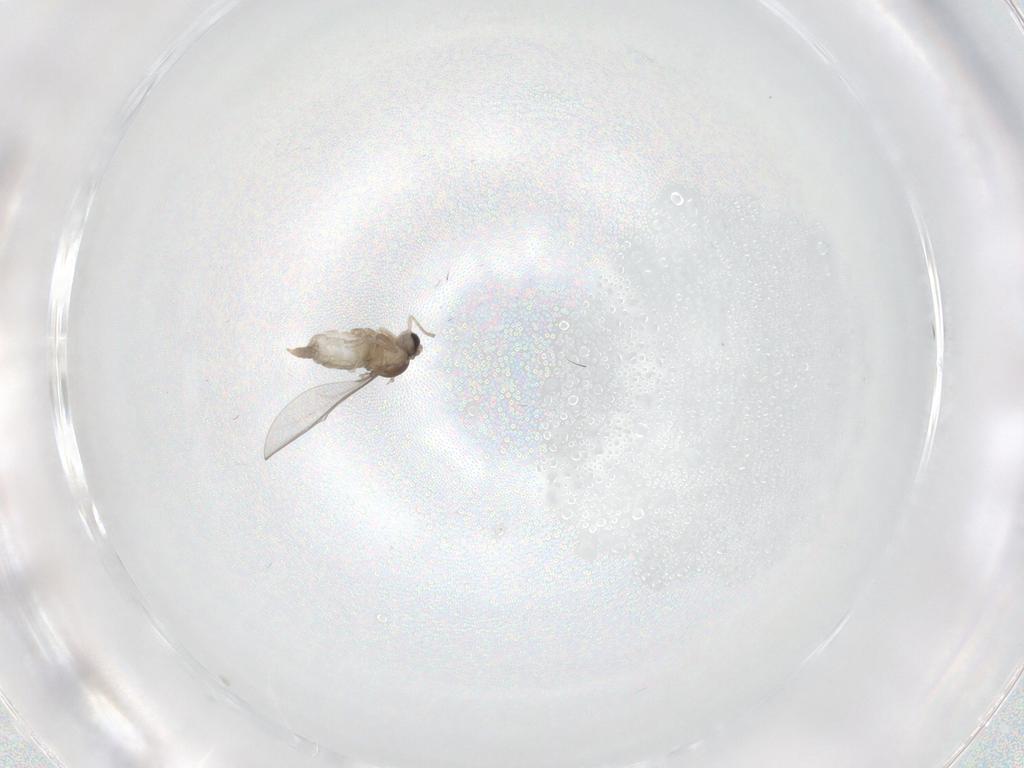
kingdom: Animalia
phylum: Arthropoda
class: Insecta
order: Diptera
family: Cecidomyiidae
